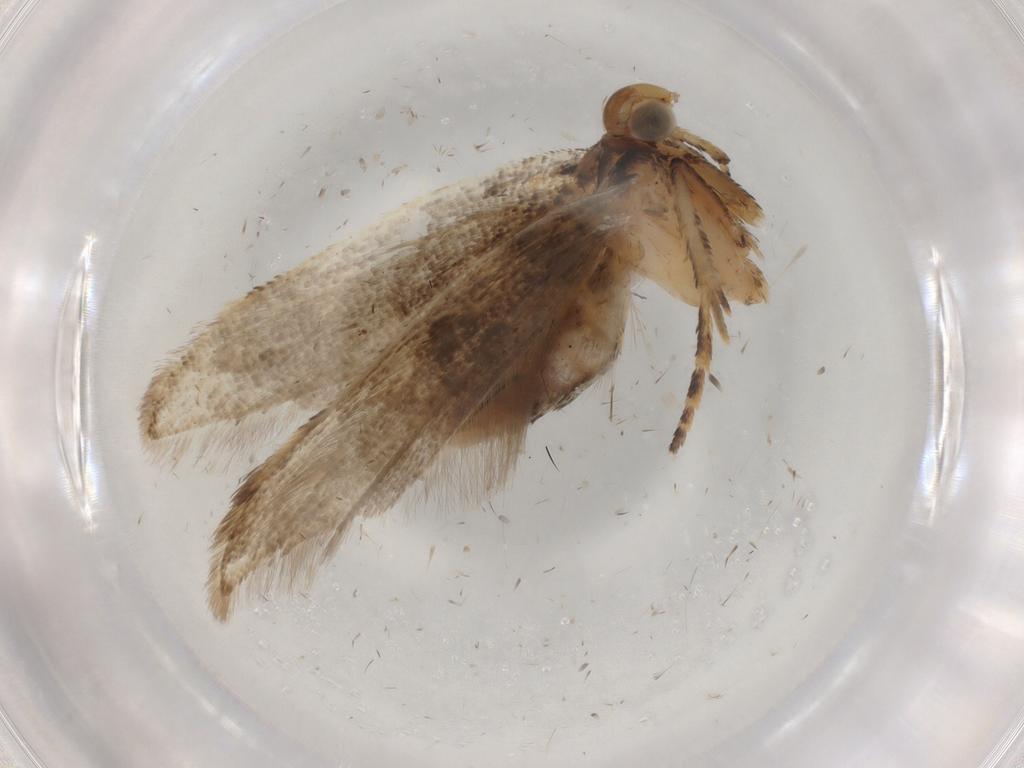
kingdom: Animalia
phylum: Arthropoda
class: Insecta
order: Lepidoptera
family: Gelechiidae
